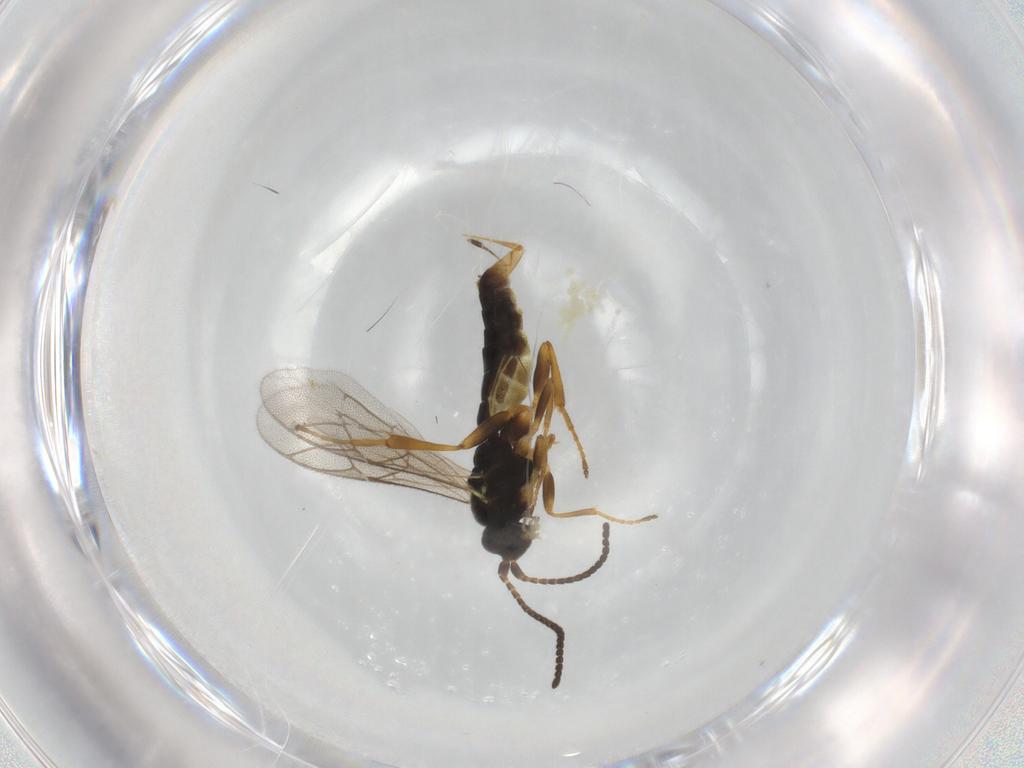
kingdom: Animalia
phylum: Arthropoda
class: Insecta
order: Hymenoptera
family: Ichneumonidae
